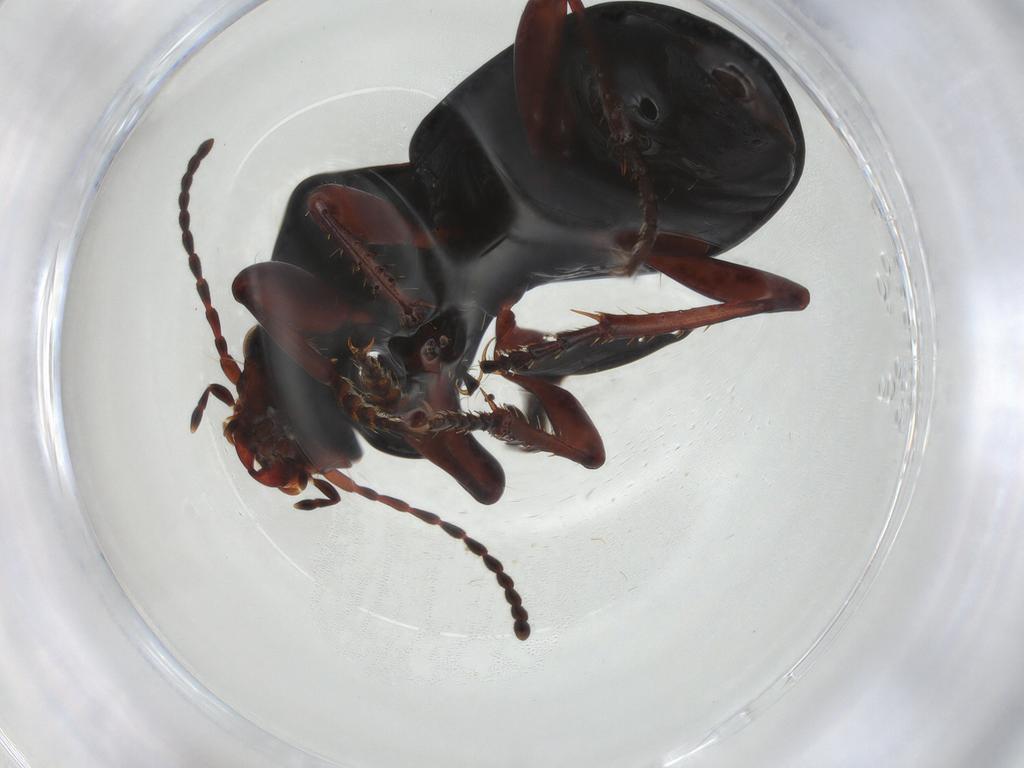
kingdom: Animalia
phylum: Arthropoda
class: Insecta
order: Coleoptera
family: Carabidae
